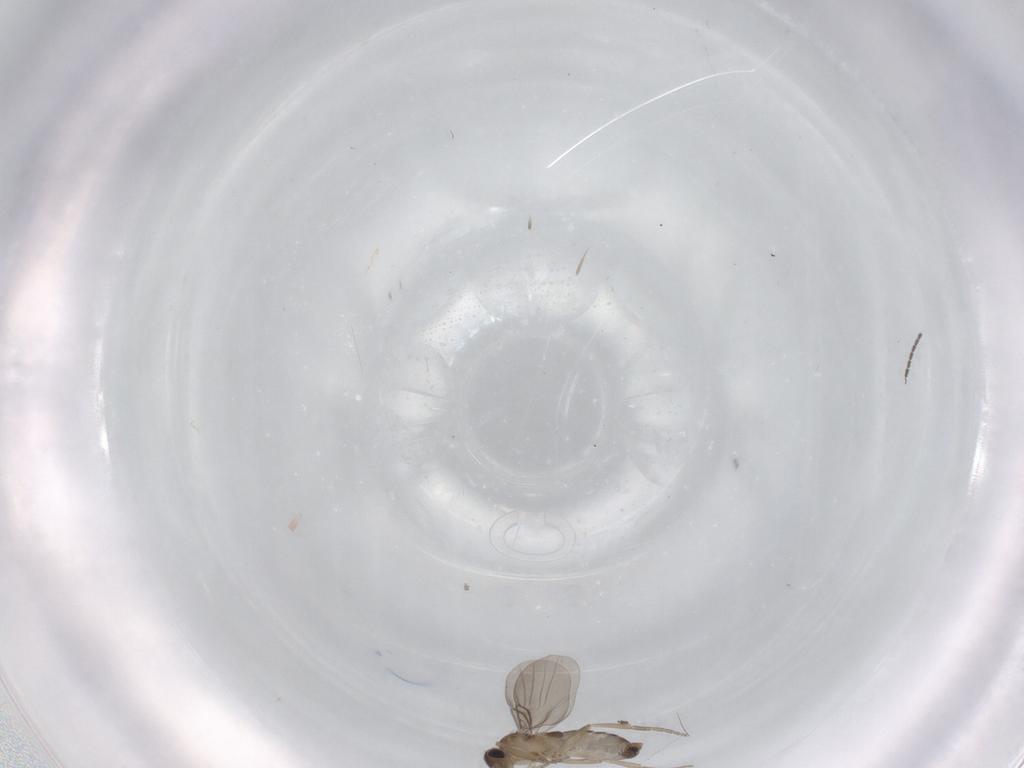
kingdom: Animalia
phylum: Arthropoda
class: Insecta
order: Diptera
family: Phoridae
